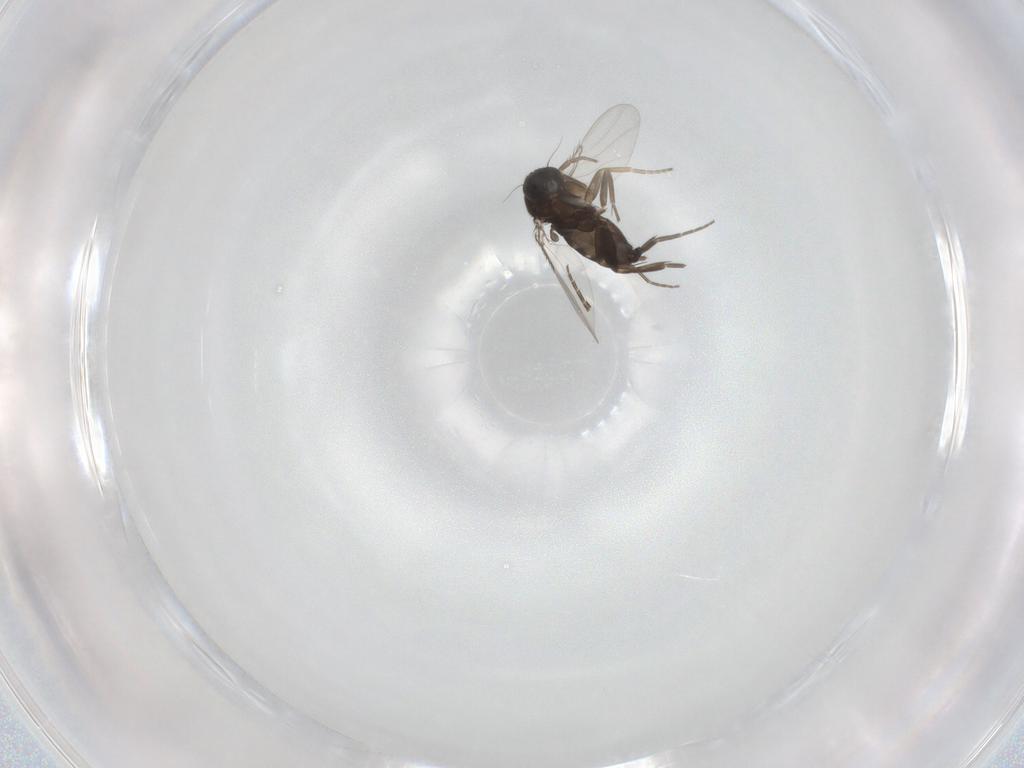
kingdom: Animalia
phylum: Arthropoda
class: Insecta
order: Diptera
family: Phoridae
